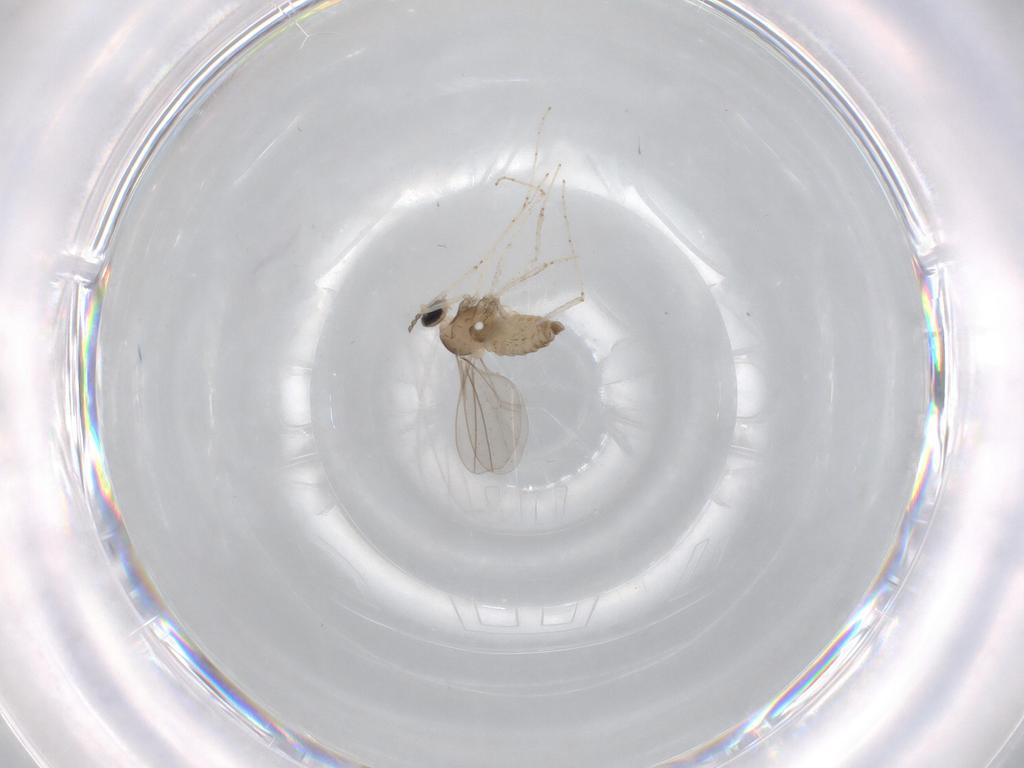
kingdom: Animalia
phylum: Arthropoda
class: Insecta
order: Diptera
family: Cecidomyiidae
